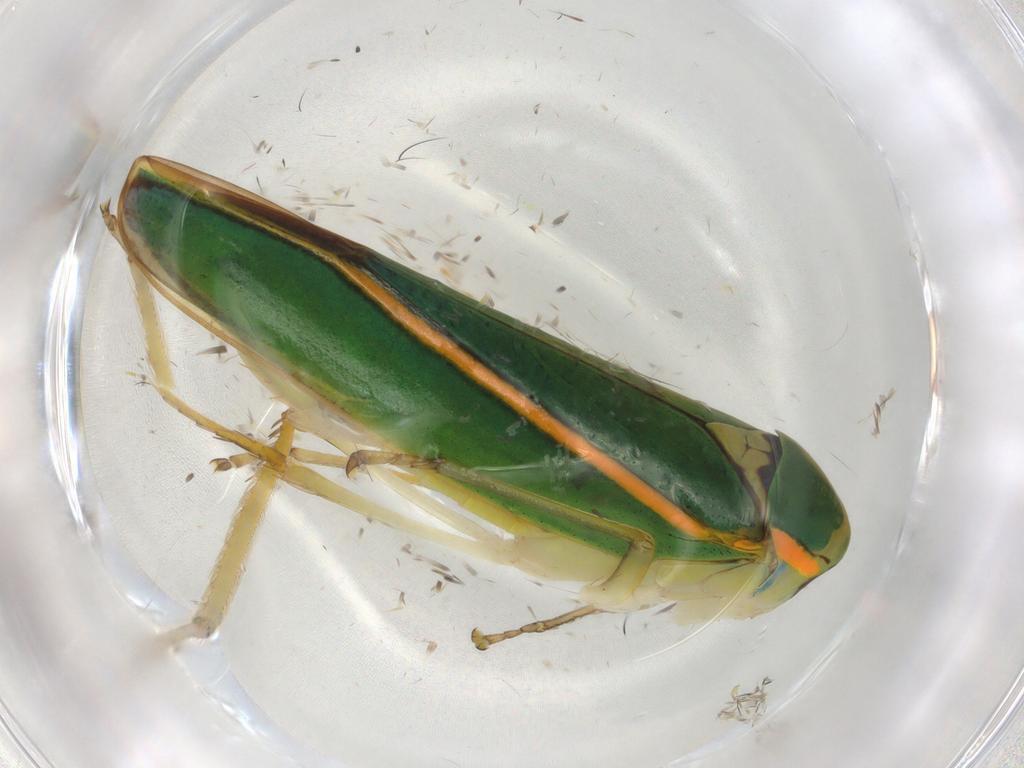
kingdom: Animalia
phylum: Arthropoda
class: Insecta
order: Hemiptera
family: Cicadellidae
